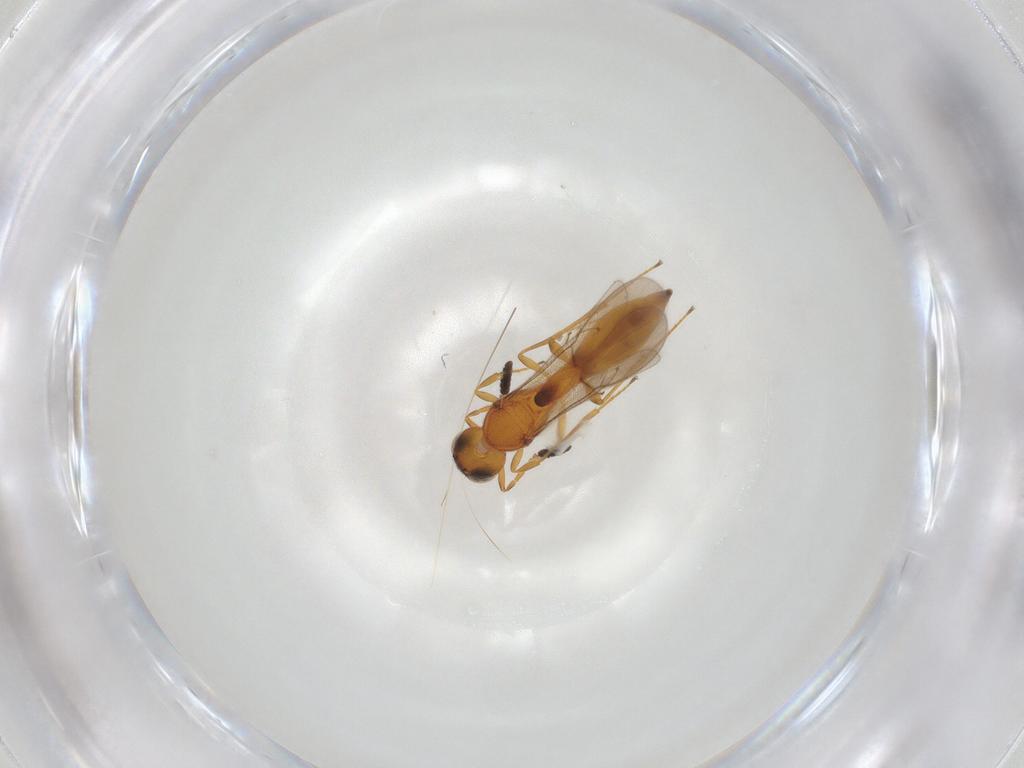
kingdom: Animalia
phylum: Arthropoda
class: Insecta
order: Hymenoptera
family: Scelionidae
